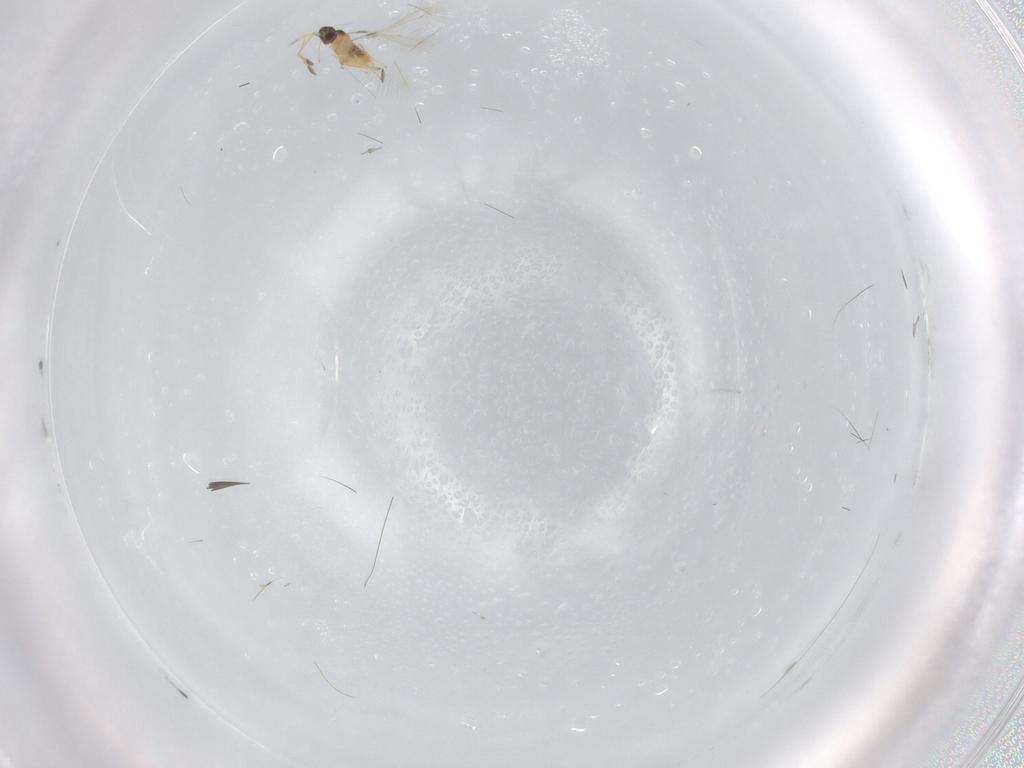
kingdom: Animalia
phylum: Arthropoda
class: Insecta
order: Hymenoptera
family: Mymaridae
